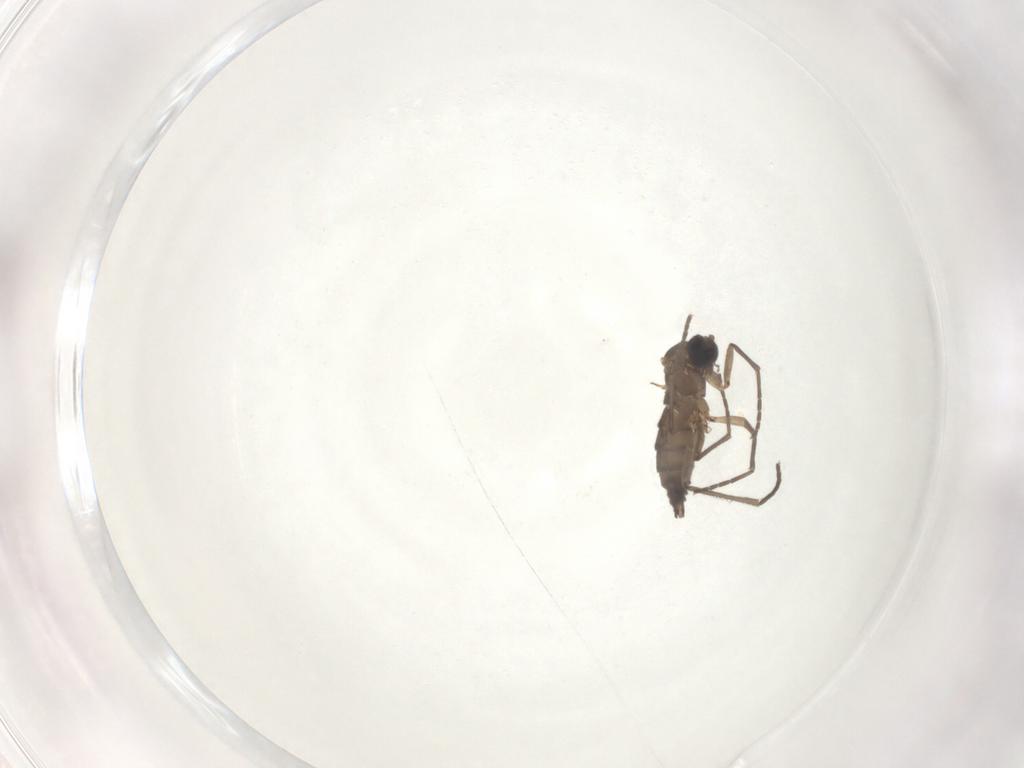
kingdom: Animalia
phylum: Arthropoda
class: Insecta
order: Diptera
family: Sciaridae
